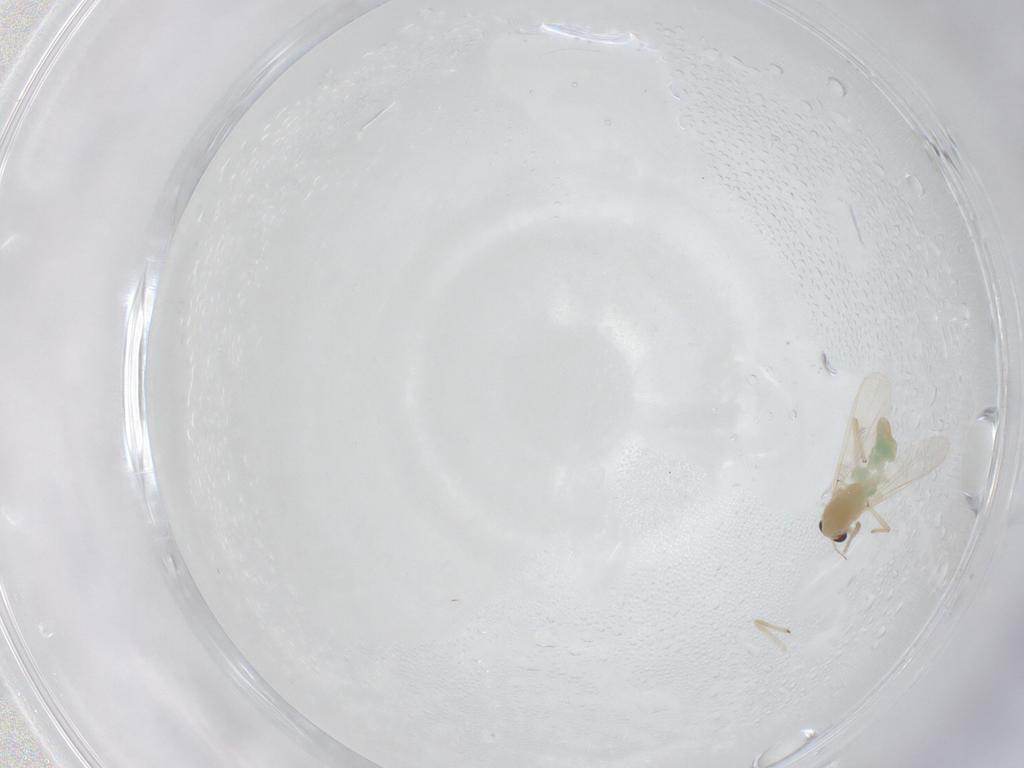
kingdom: Animalia
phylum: Arthropoda
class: Insecta
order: Diptera
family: Chironomidae
